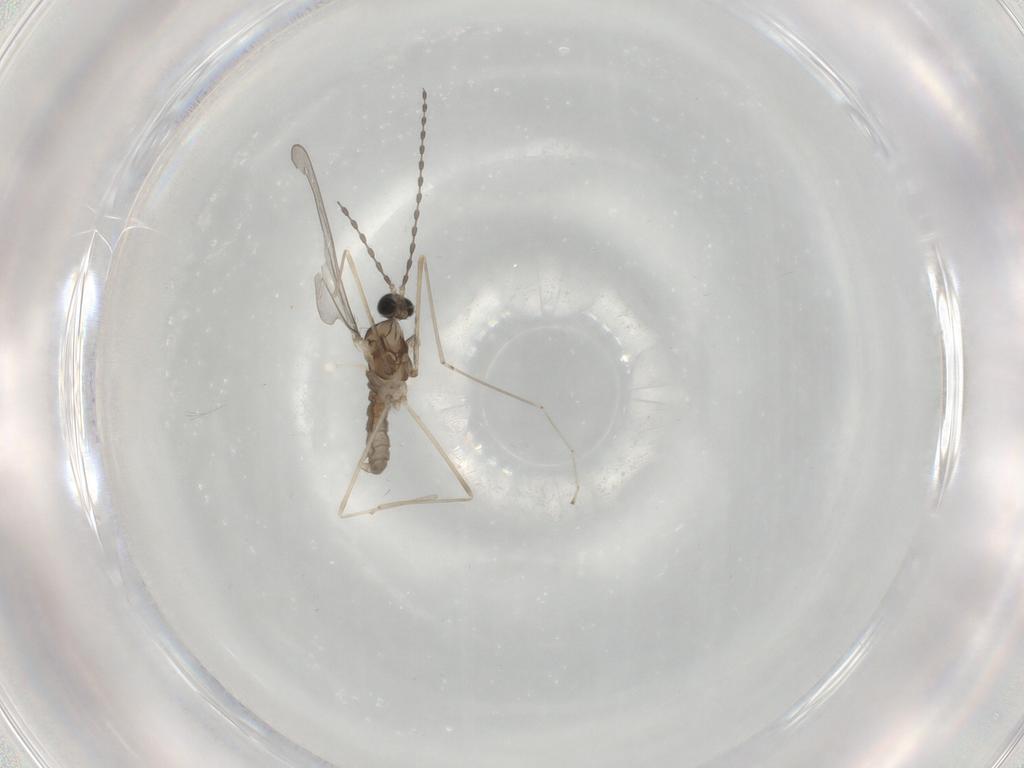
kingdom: Animalia
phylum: Arthropoda
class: Insecta
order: Diptera
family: Cecidomyiidae
